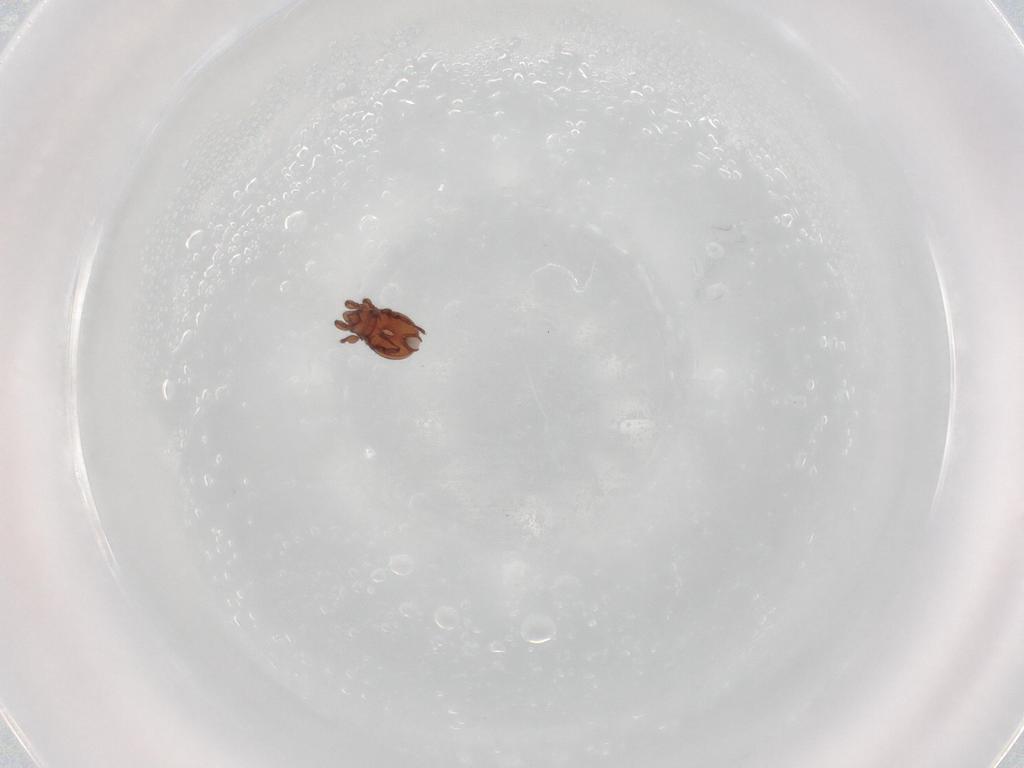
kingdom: Animalia
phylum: Arthropoda
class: Arachnida
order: Sarcoptiformes
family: Eremaeidae
